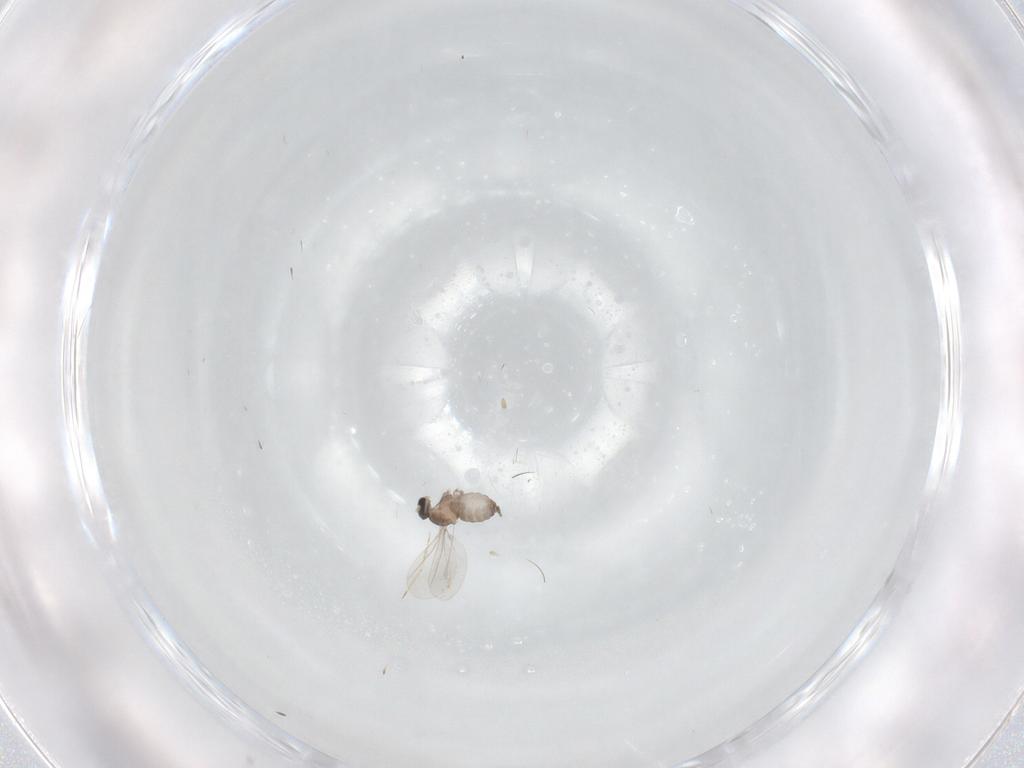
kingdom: Animalia
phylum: Arthropoda
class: Insecta
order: Diptera
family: Cecidomyiidae
